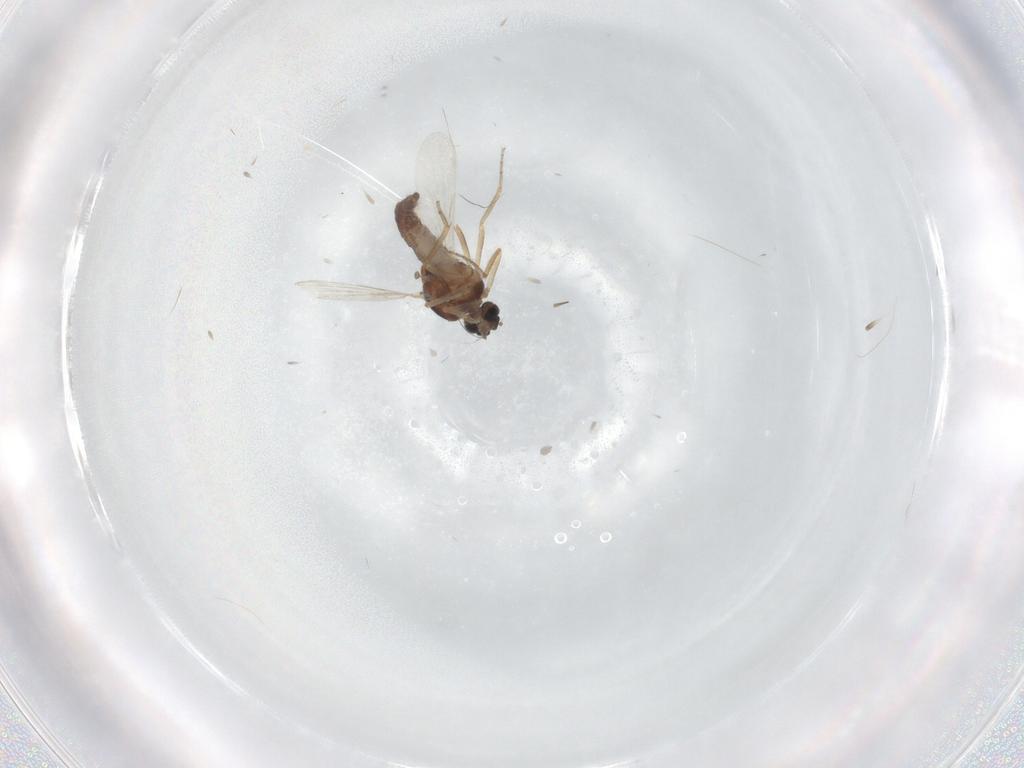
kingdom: Animalia
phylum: Arthropoda
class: Insecta
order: Diptera
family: Ceratopogonidae
